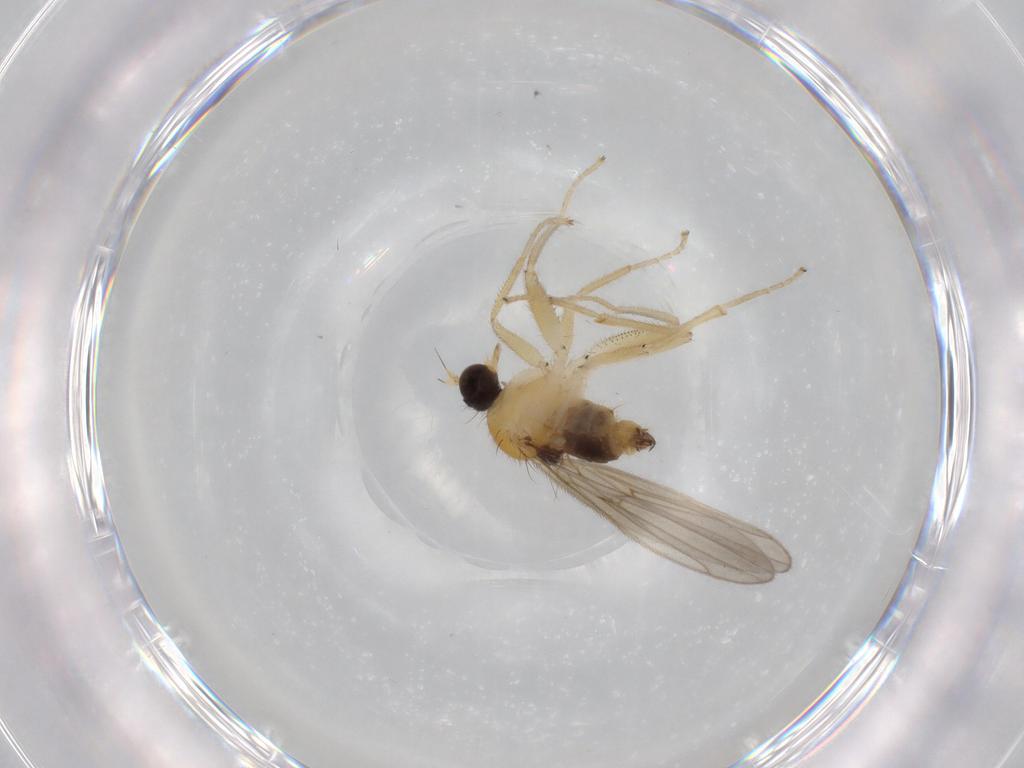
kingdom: Animalia
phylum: Arthropoda
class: Insecta
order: Diptera
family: Hybotidae
